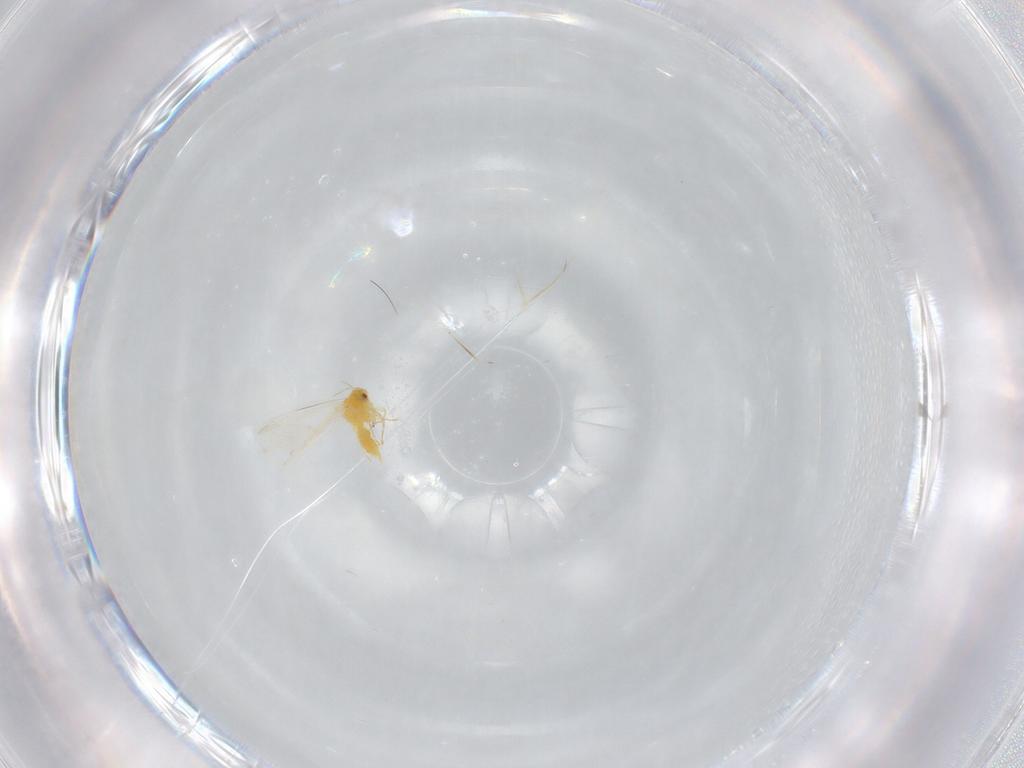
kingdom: Animalia
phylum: Arthropoda
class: Insecta
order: Hemiptera
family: Aleyrodidae
